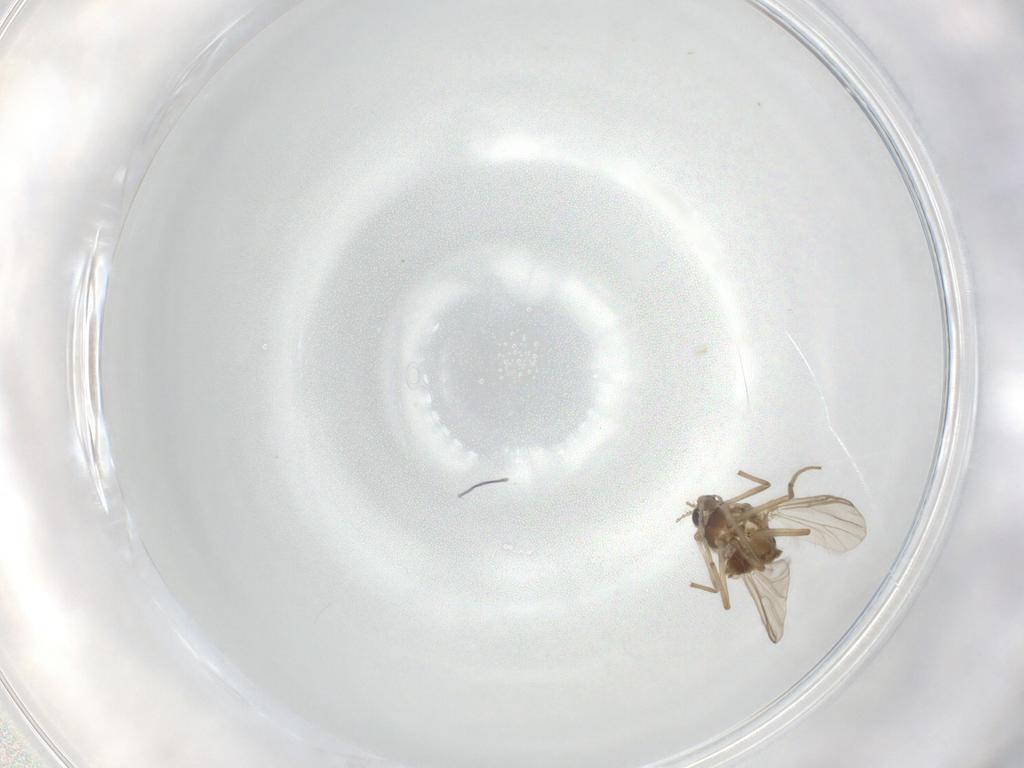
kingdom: Animalia
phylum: Arthropoda
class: Insecta
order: Diptera
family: Chironomidae
